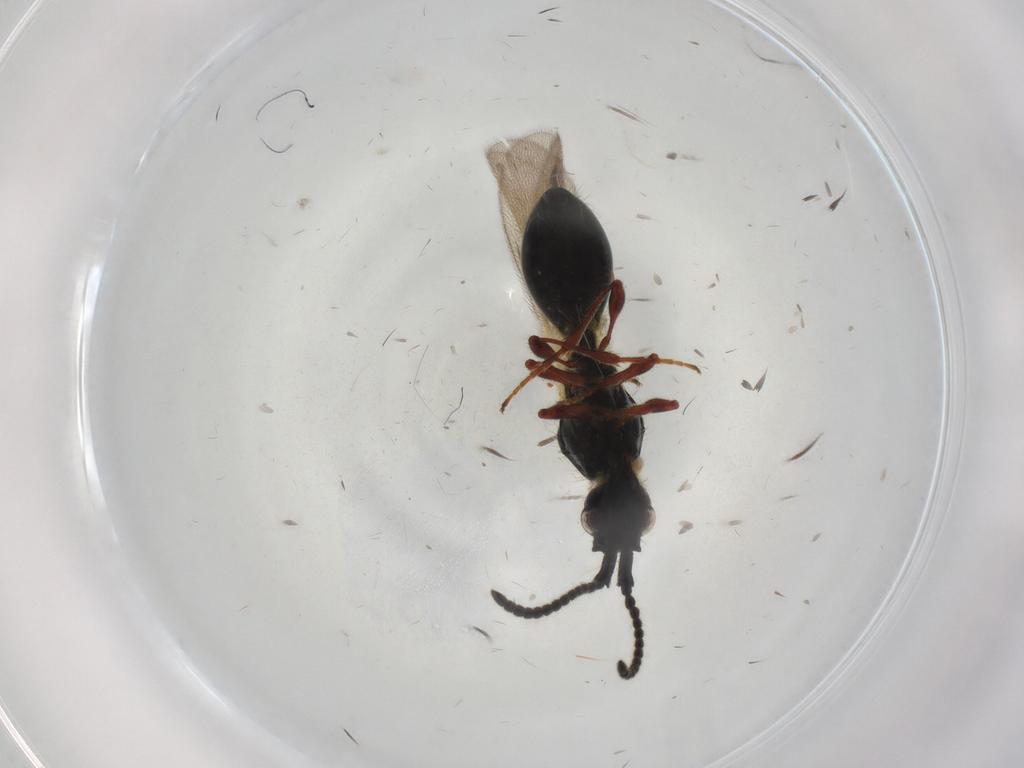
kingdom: Animalia
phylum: Arthropoda
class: Insecta
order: Hymenoptera
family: Diapriidae
